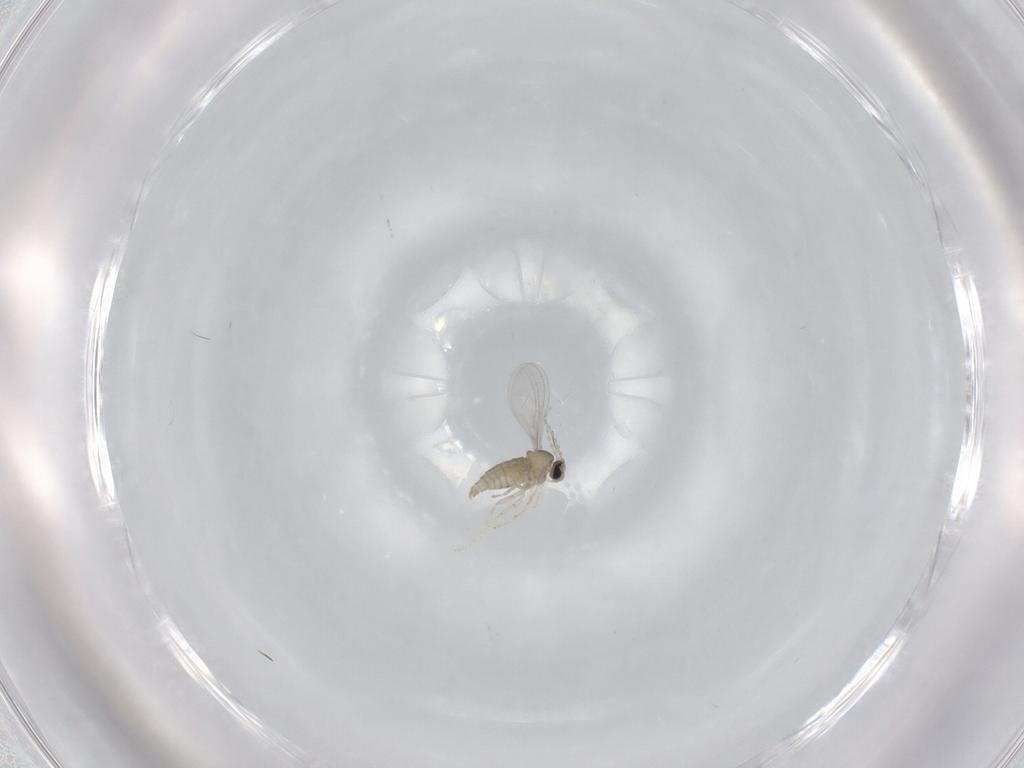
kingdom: Animalia
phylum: Arthropoda
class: Insecta
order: Diptera
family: Cecidomyiidae
